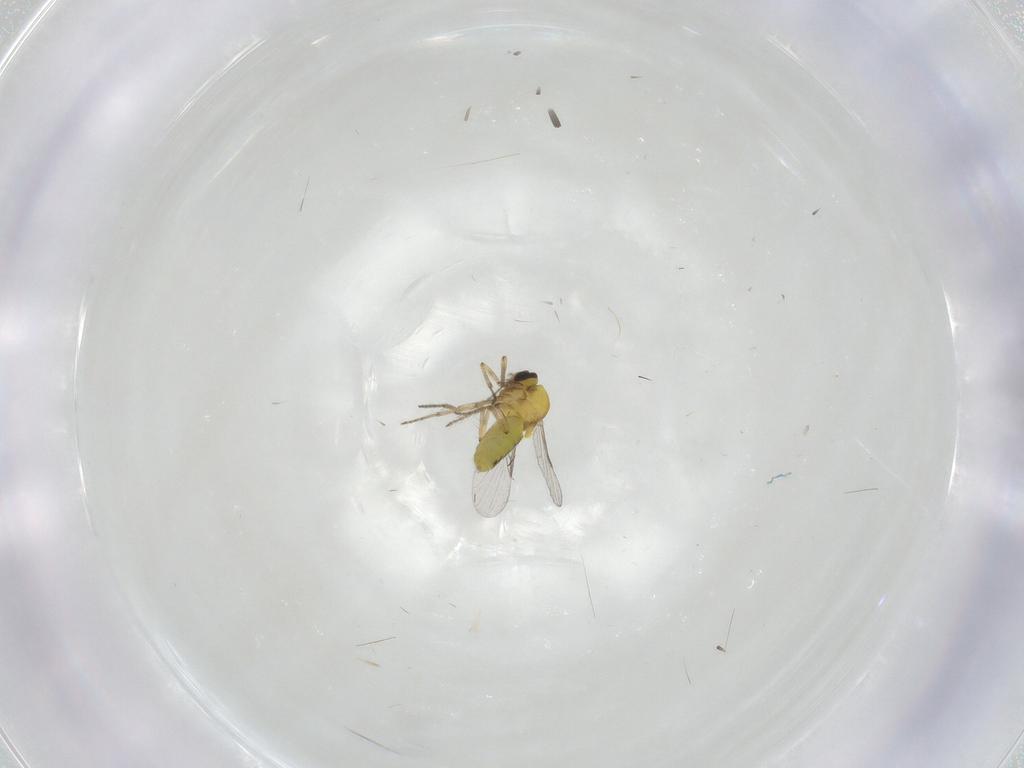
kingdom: Animalia
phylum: Arthropoda
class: Insecta
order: Diptera
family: Ceratopogonidae
